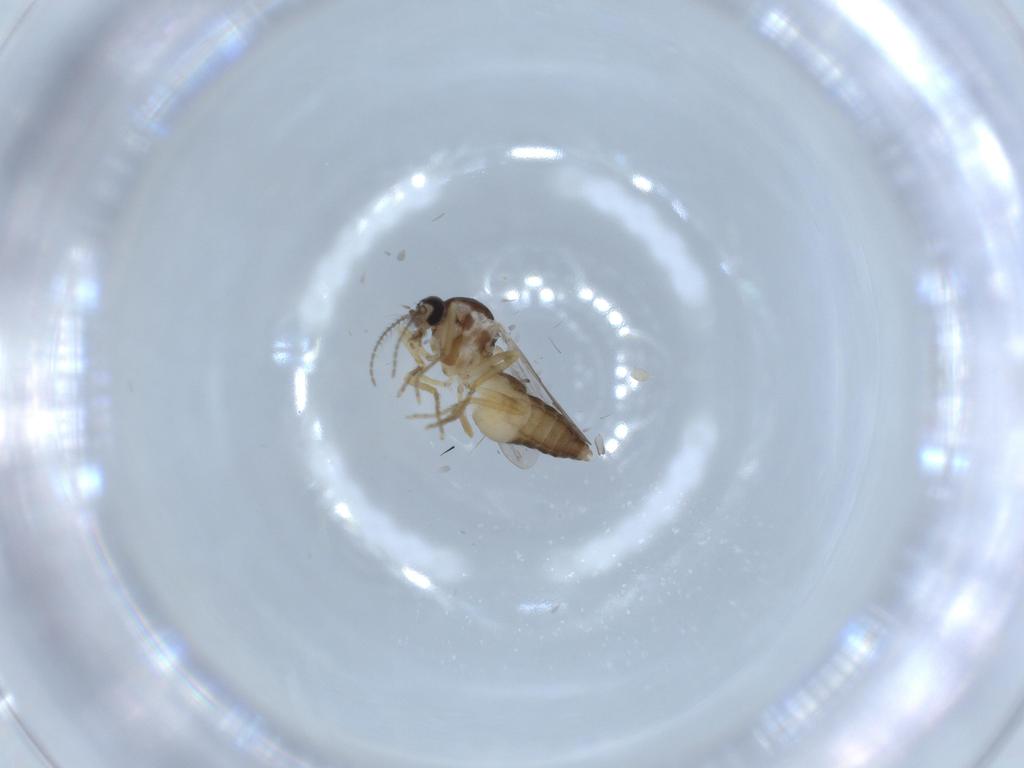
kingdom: Animalia
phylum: Arthropoda
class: Insecta
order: Diptera
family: Ceratopogonidae
